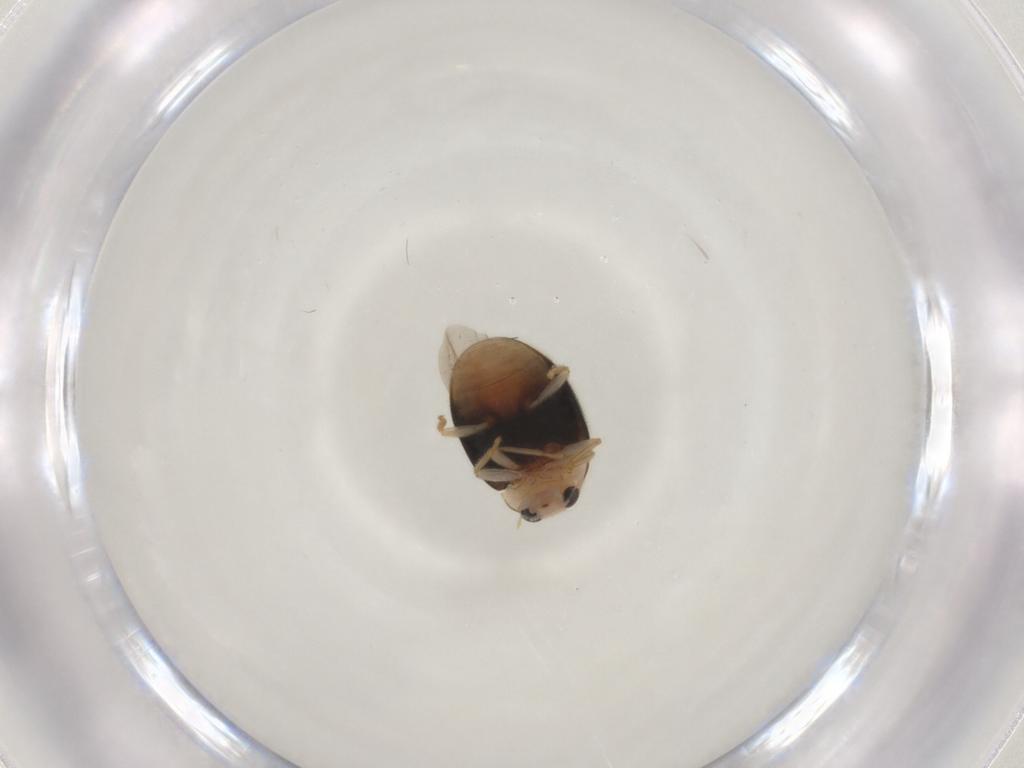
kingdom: Animalia
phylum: Arthropoda
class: Insecta
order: Coleoptera
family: Coccinellidae
